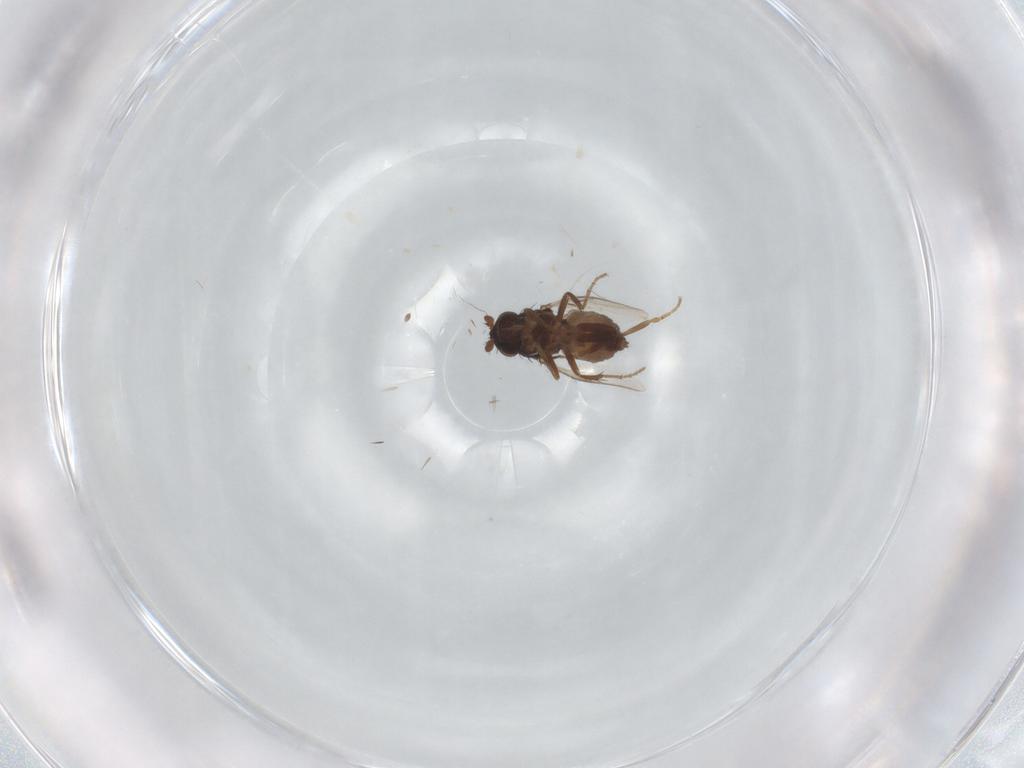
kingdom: Animalia
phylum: Arthropoda
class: Insecta
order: Diptera
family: Sphaeroceridae
